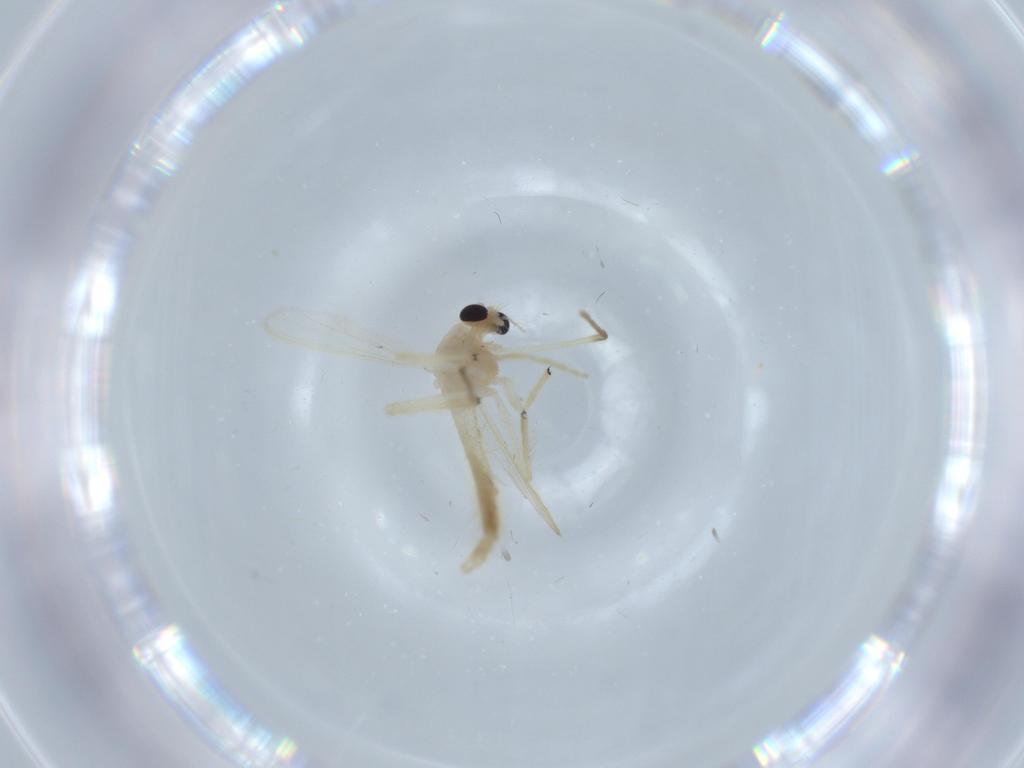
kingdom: Animalia
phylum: Arthropoda
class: Insecta
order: Diptera
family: Chironomidae
